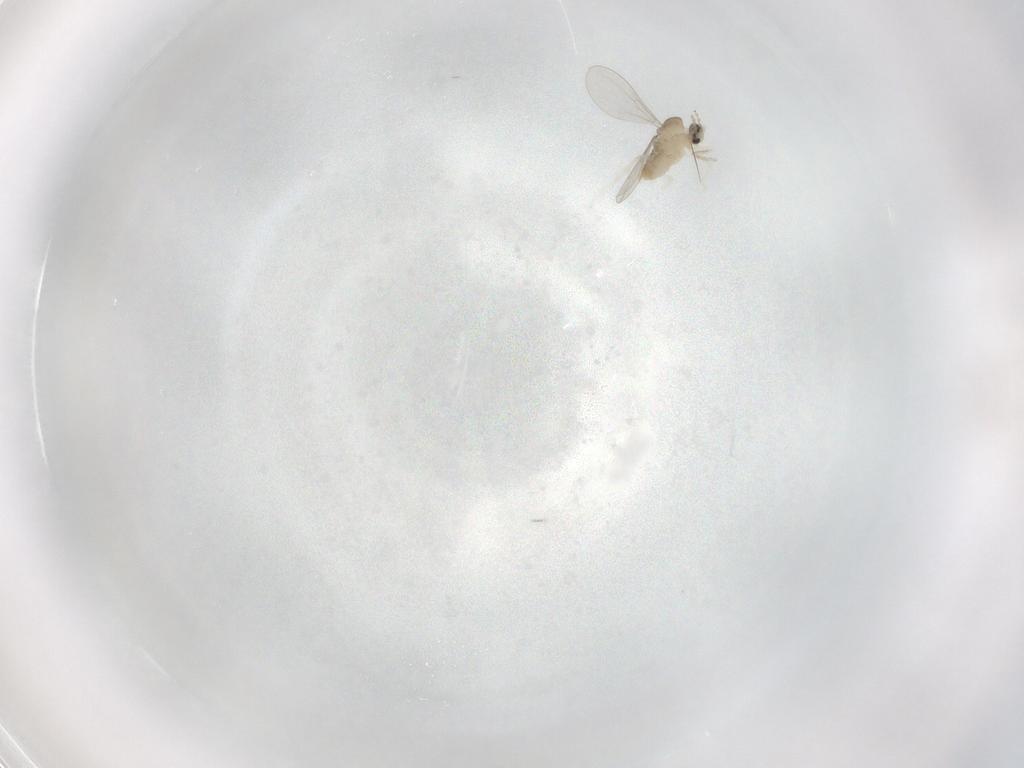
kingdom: Animalia
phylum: Arthropoda
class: Insecta
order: Diptera
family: Cecidomyiidae
